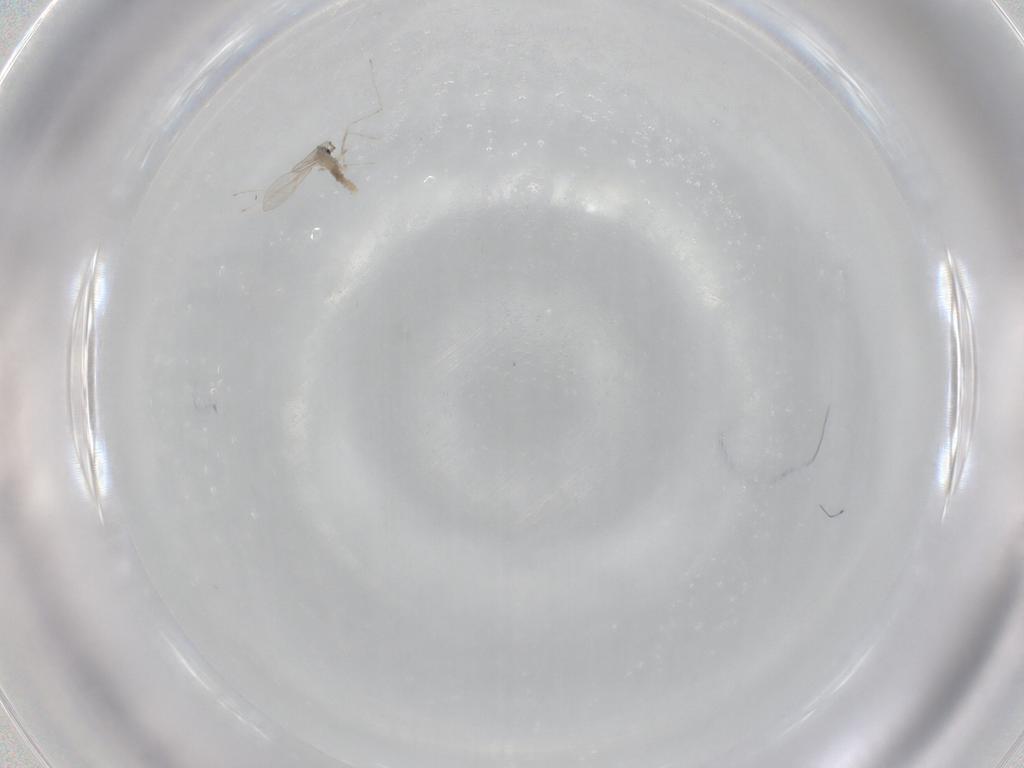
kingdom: Animalia
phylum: Arthropoda
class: Insecta
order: Diptera
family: Cecidomyiidae
